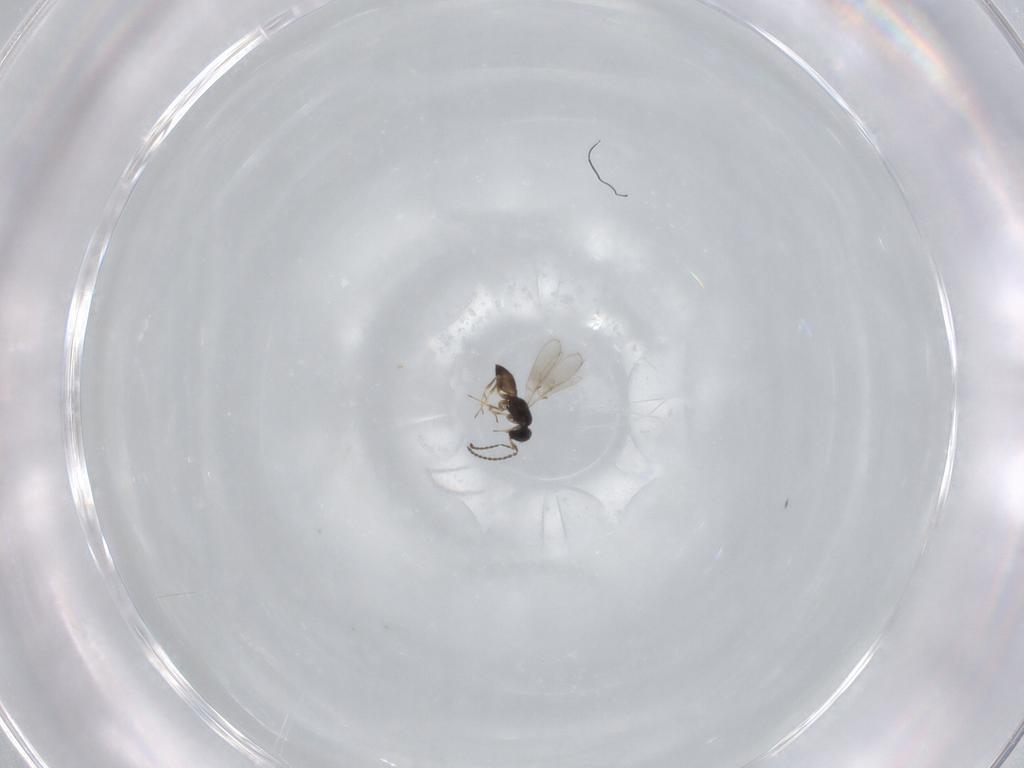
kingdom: Animalia
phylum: Arthropoda
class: Insecta
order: Hymenoptera
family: Scelionidae
